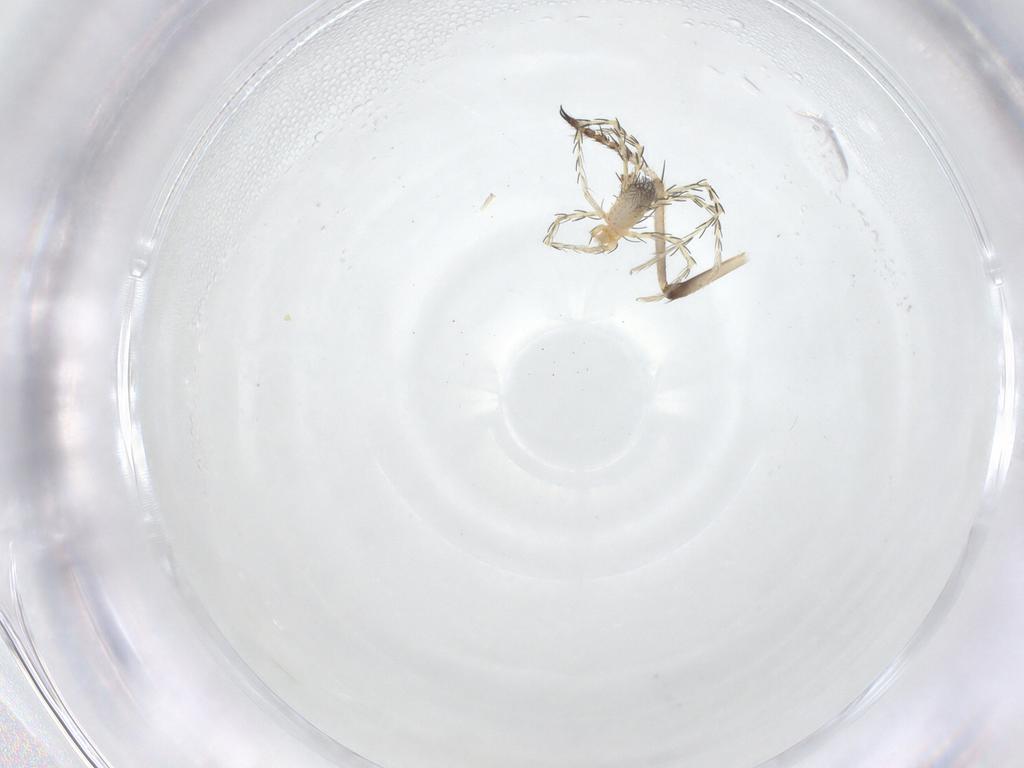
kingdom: Animalia
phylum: Arthropoda
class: Arachnida
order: Trombidiformes
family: Erythraeidae
